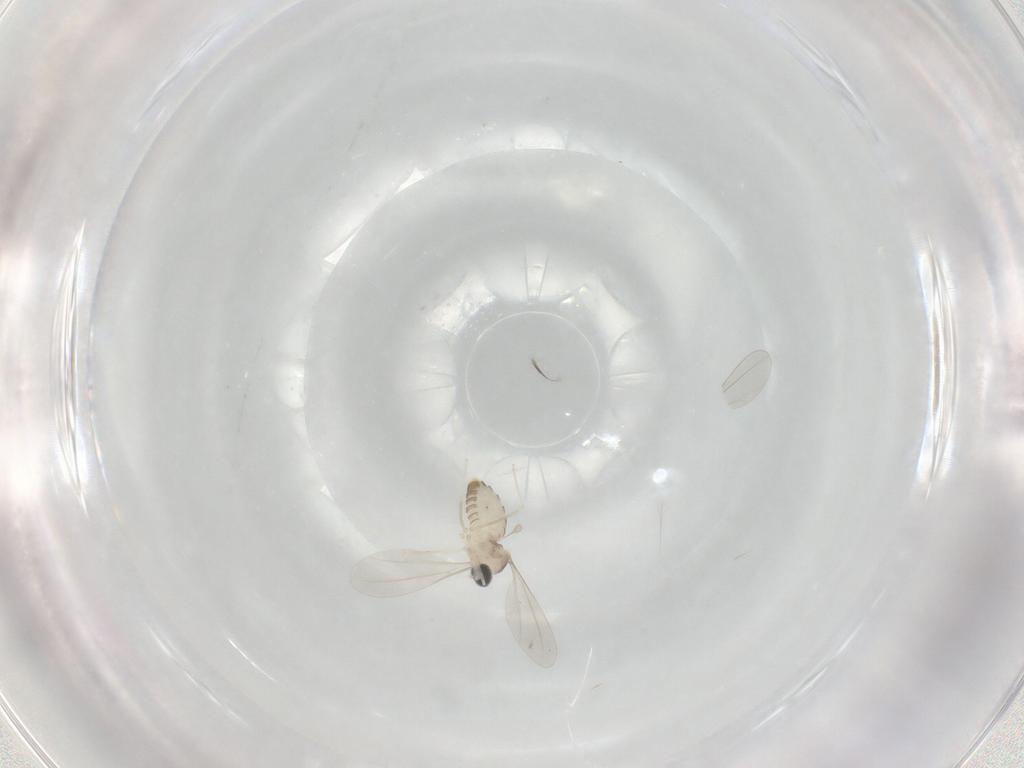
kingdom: Animalia
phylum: Arthropoda
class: Insecta
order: Diptera
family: Cecidomyiidae
